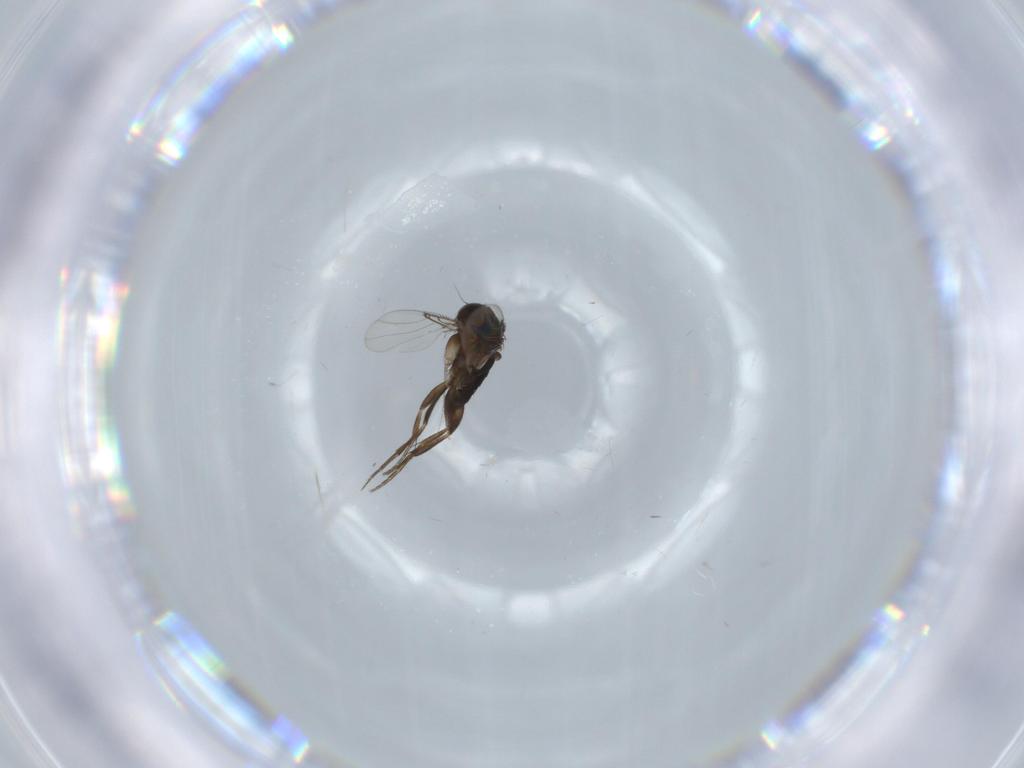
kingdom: Animalia
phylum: Arthropoda
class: Insecta
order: Diptera
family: Phoridae
